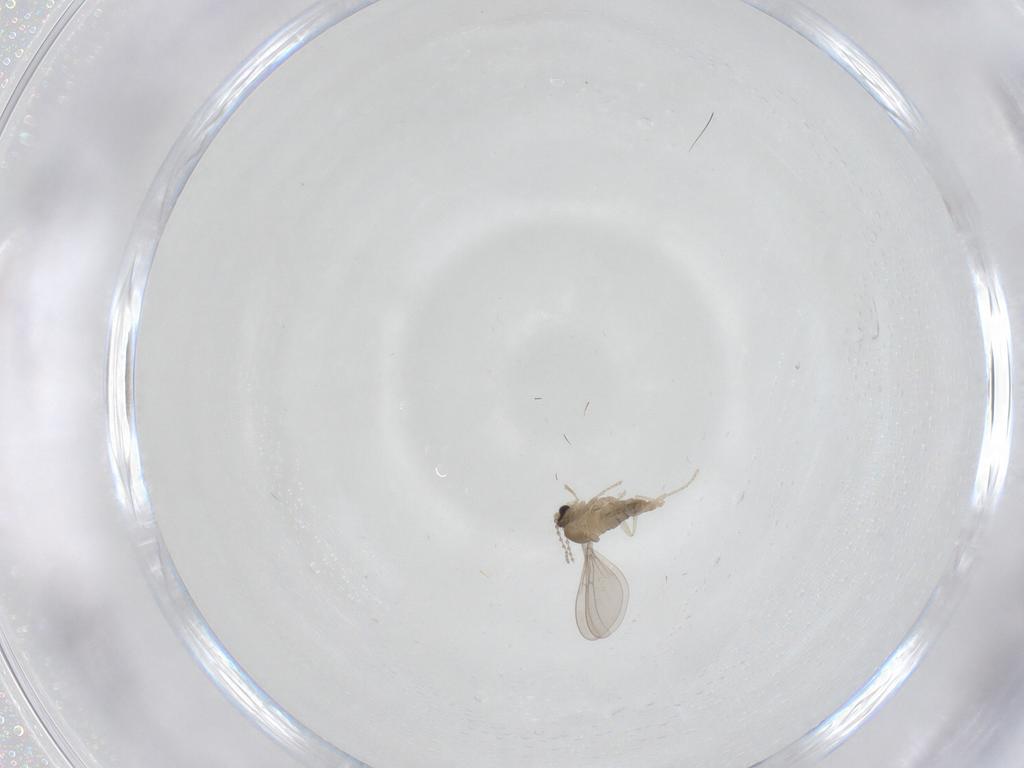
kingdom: Animalia
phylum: Arthropoda
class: Insecta
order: Diptera
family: Cecidomyiidae
